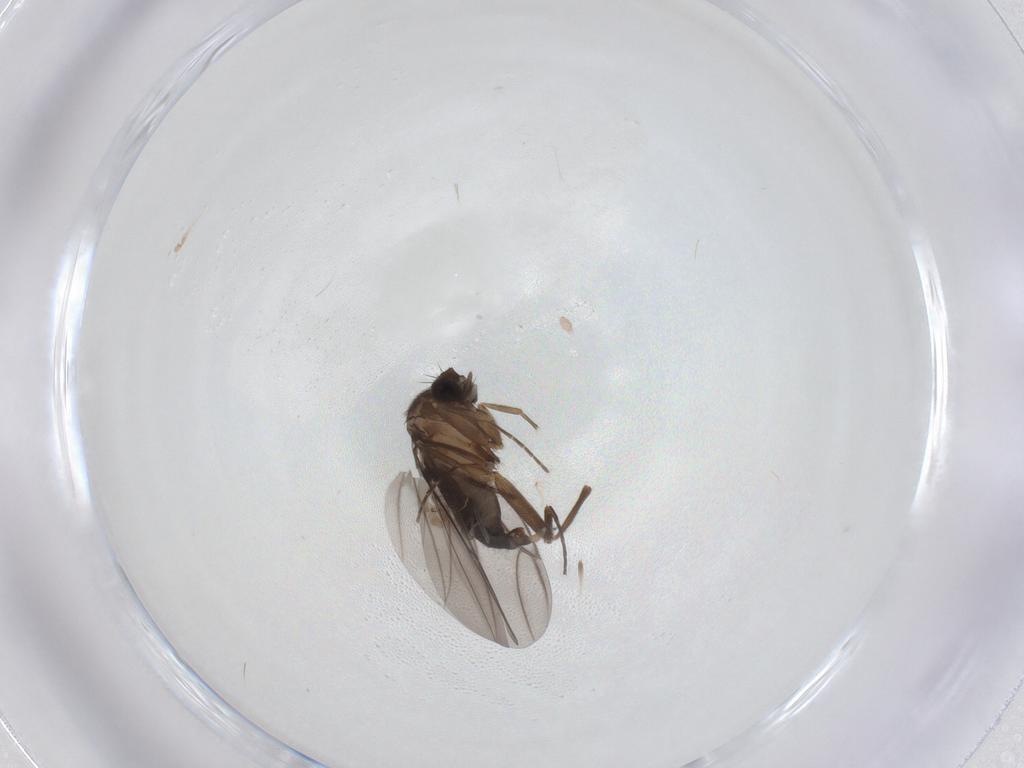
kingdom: Animalia
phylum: Arthropoda
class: Insecta
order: Diptera
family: Phoridae
